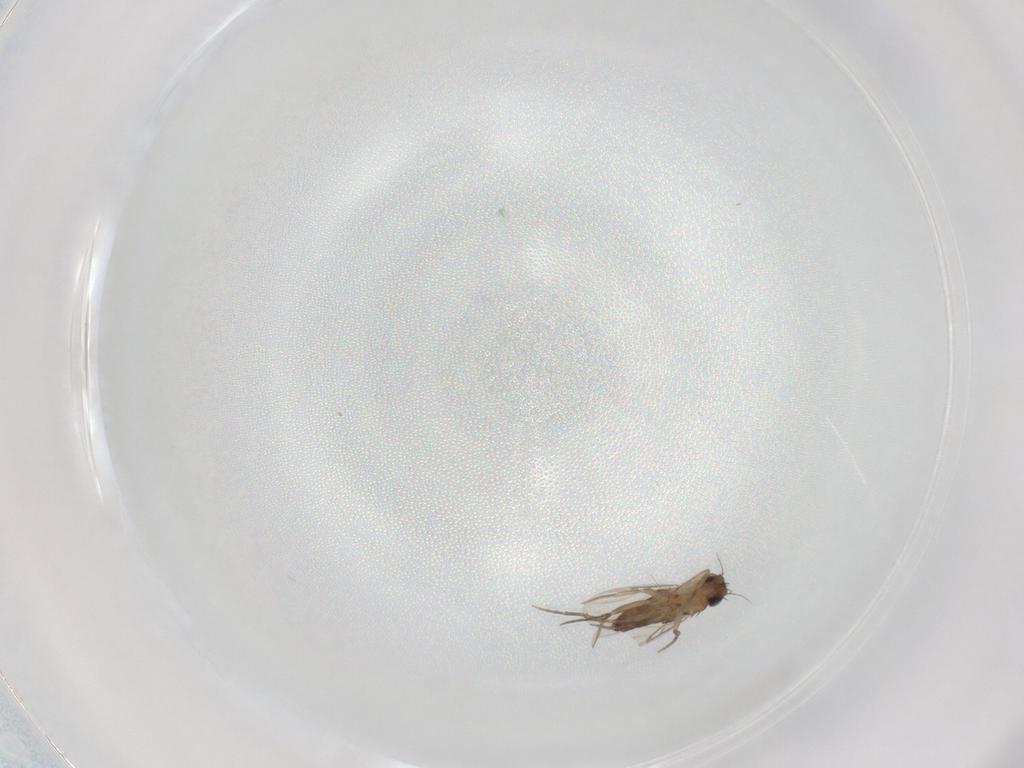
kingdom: Animalia
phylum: Arthropoda
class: Insecta
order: Diptera
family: Phoridae
